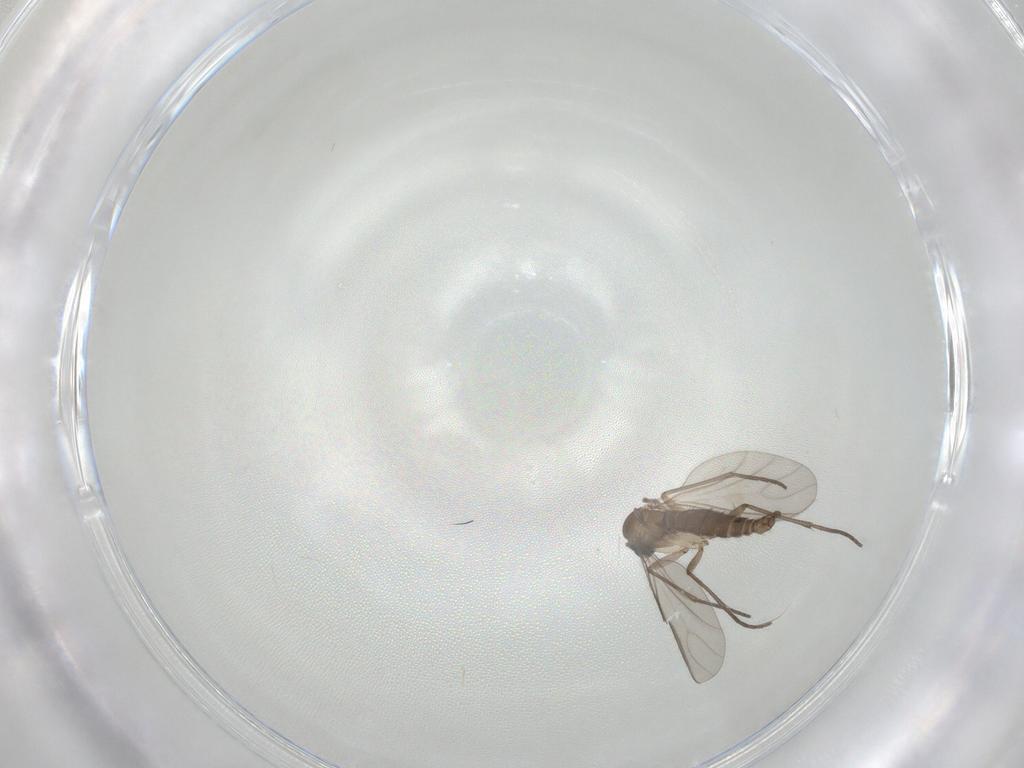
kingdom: Animalia
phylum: Arthropoda
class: Insecta
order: Diptera
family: Sciaridae
